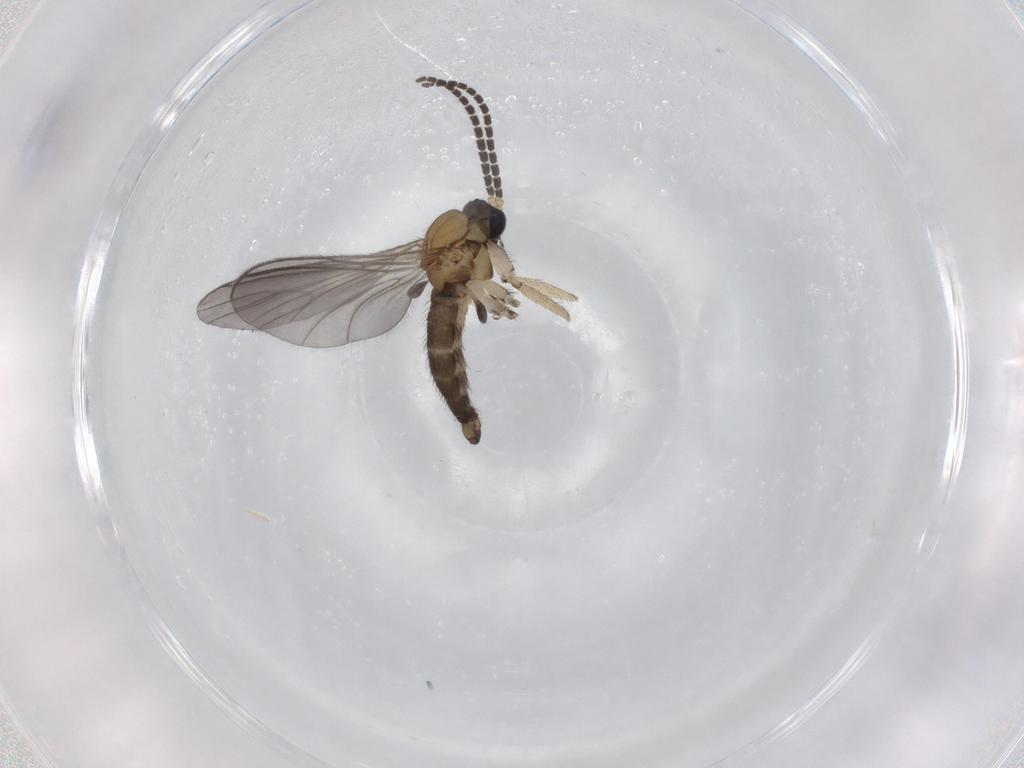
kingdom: Animalia
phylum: Arthropoda
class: Insecta
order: Diptera
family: Sciaridae
